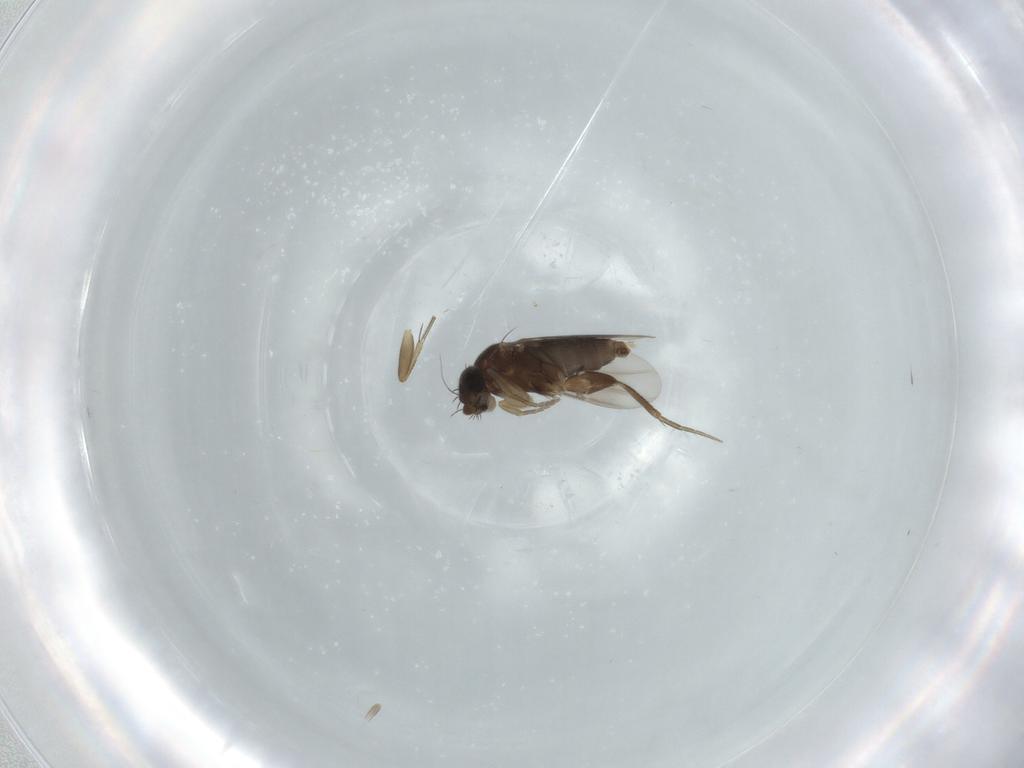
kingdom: Animalia
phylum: Arthropoda
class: Insecta
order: Diptera
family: Phoridae
